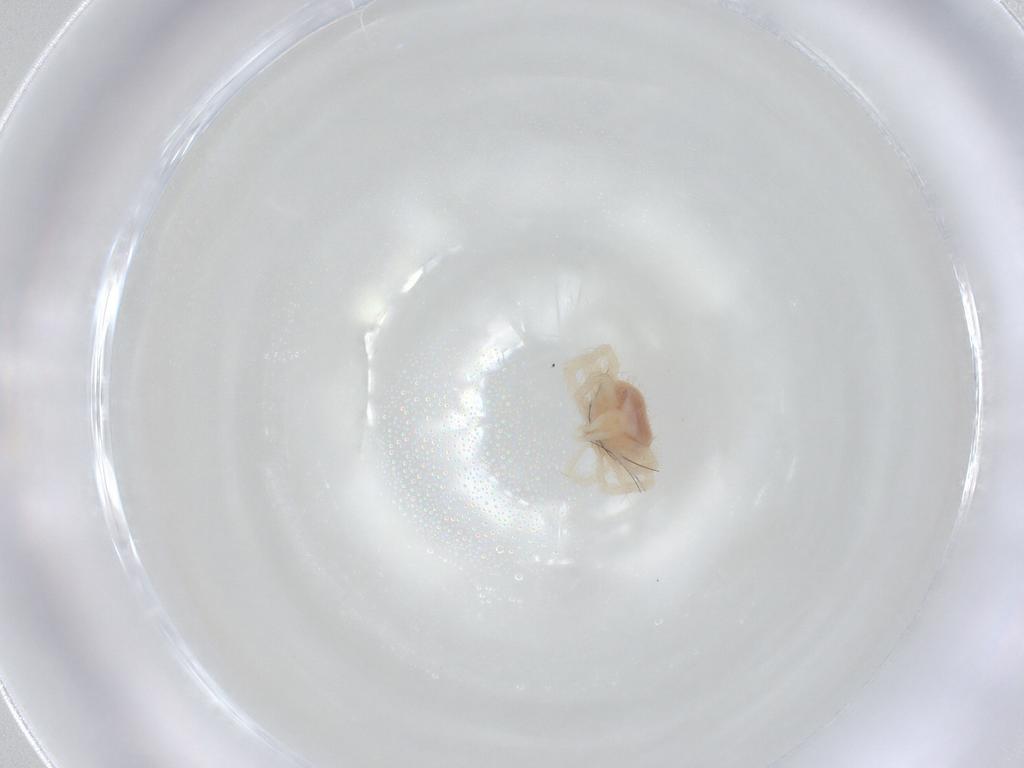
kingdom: Animalia
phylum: Arthropoda
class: Arachnida
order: Trombidiformes
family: Anystidae
